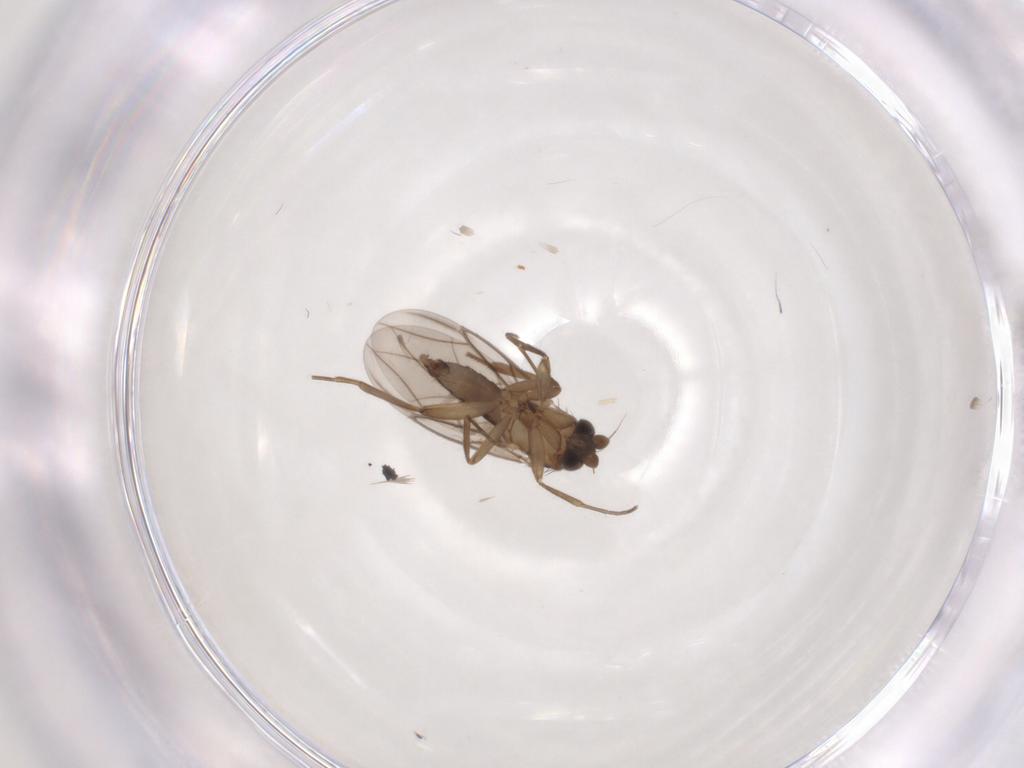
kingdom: Animalia
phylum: Arthropoda
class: Insecta
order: Diptera
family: Phoridae
